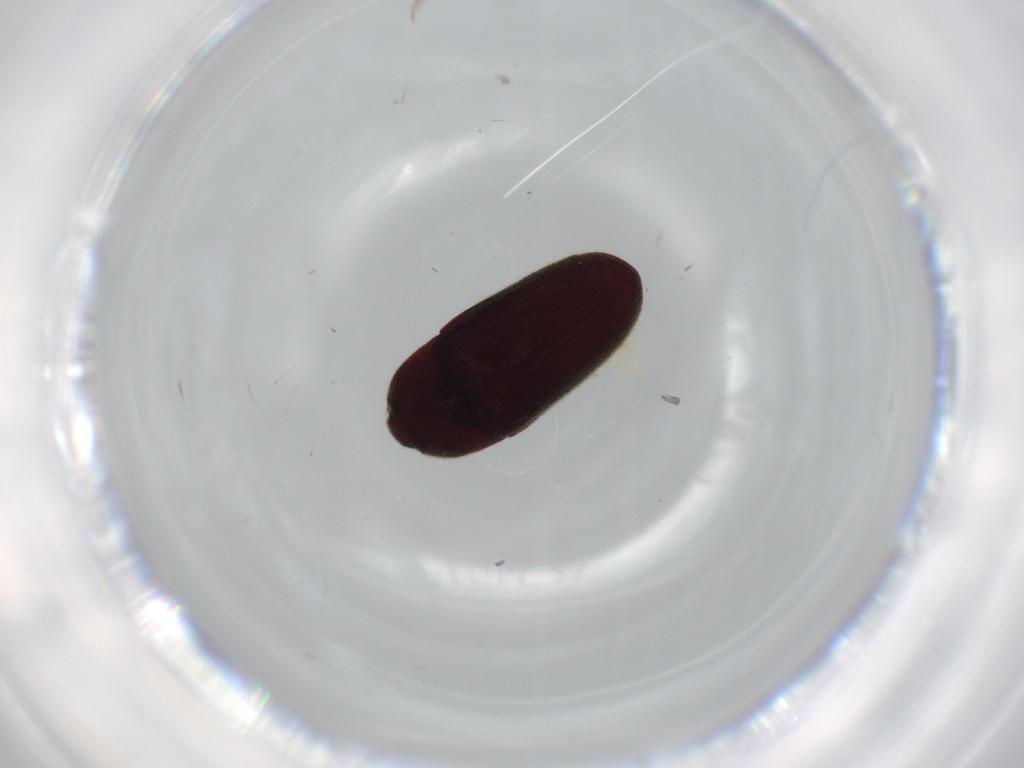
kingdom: Animalia
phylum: Arthropoda
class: Insecta
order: Coleoptera
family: Throscidae
